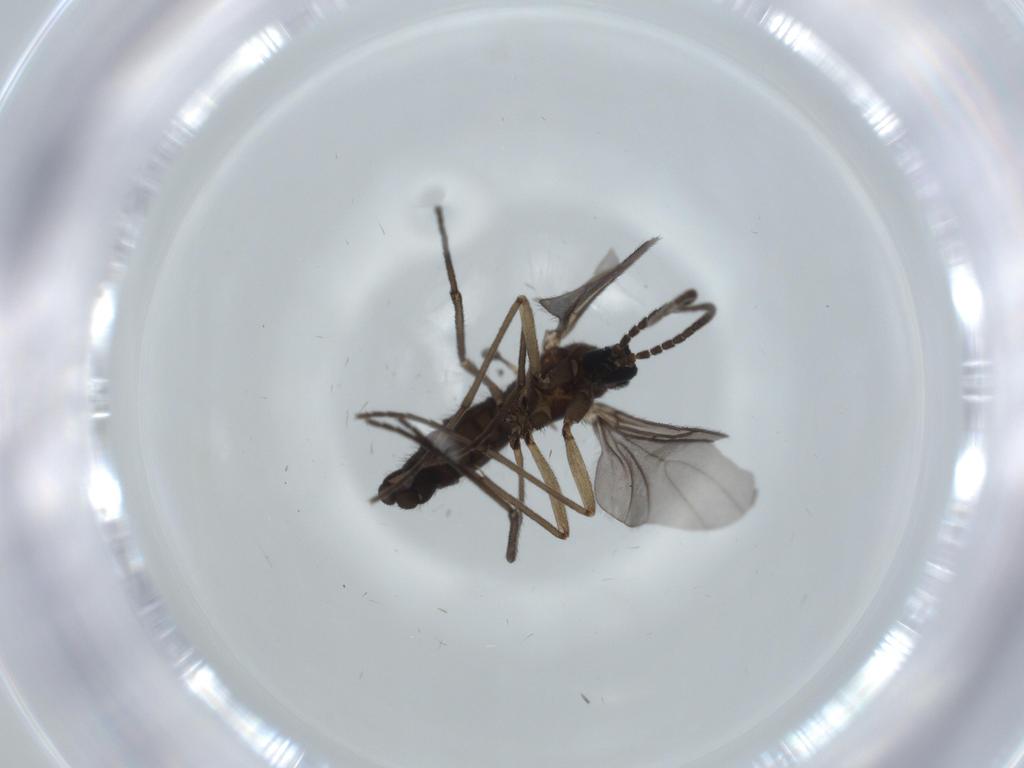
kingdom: Animalia
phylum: Arthropoda
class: Insecta
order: Diptera
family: Sciaridae
